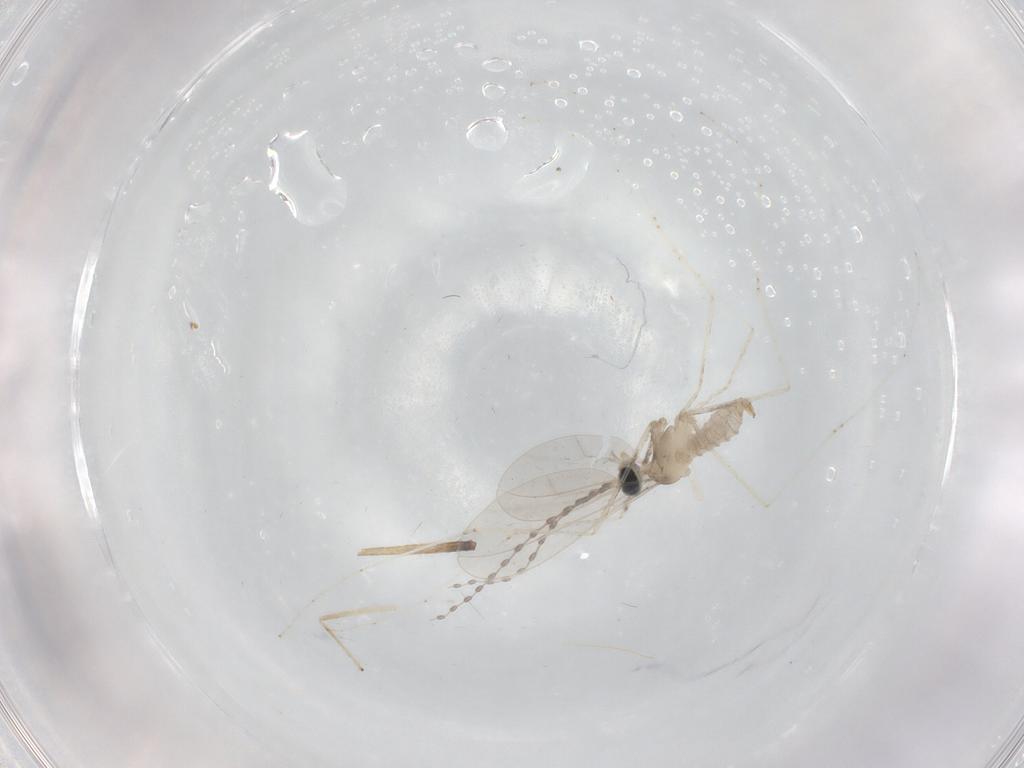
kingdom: Animalia
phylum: Arthropoda
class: Insecta
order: Diptera
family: Cecidomyiidae
